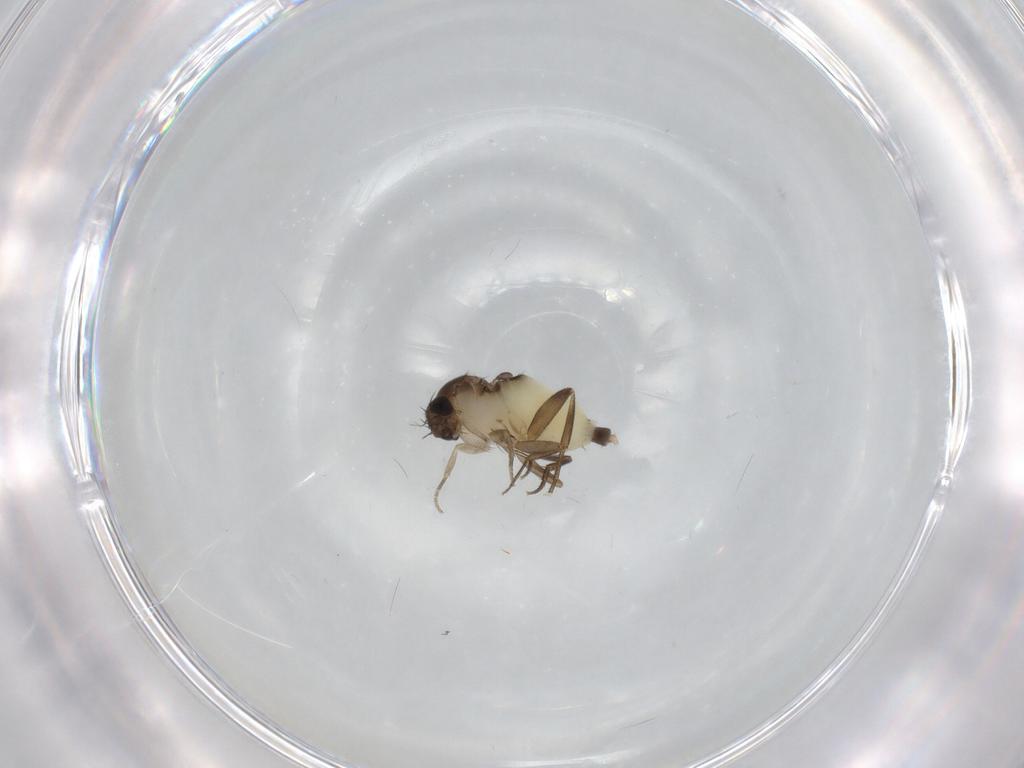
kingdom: Animalia
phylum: Arthropoda
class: Insecta
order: Diptera
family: Phoridae
